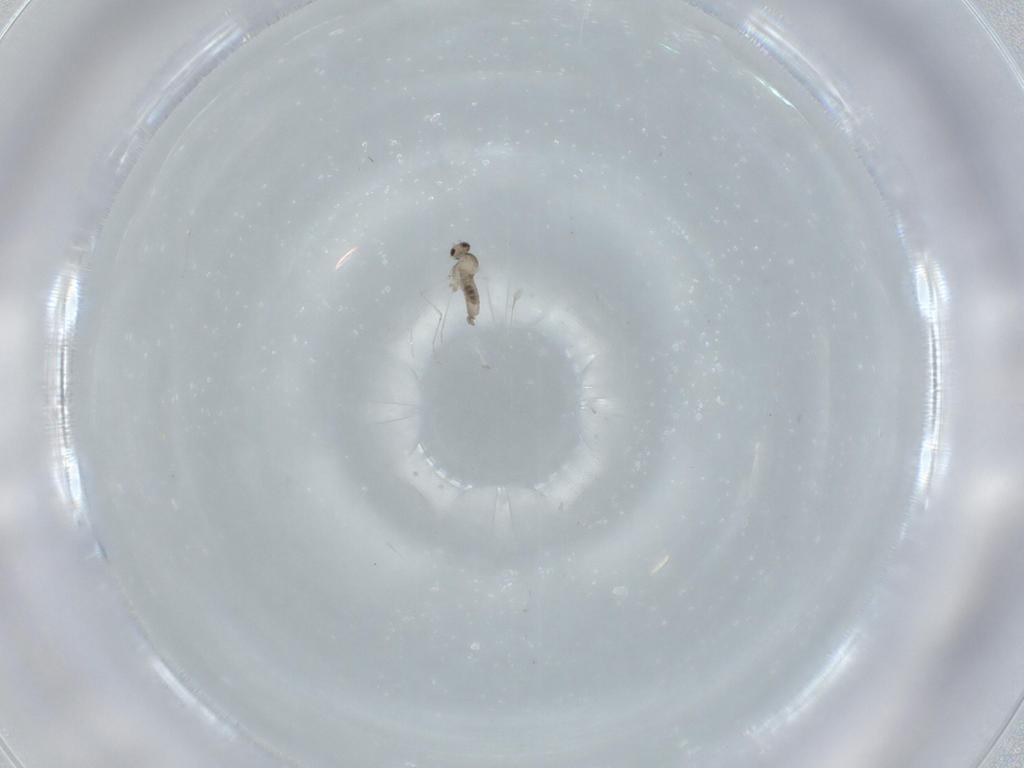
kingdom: Animalia
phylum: Arthropoda
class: Insecta
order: Diptera
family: Cecidomyiidae
